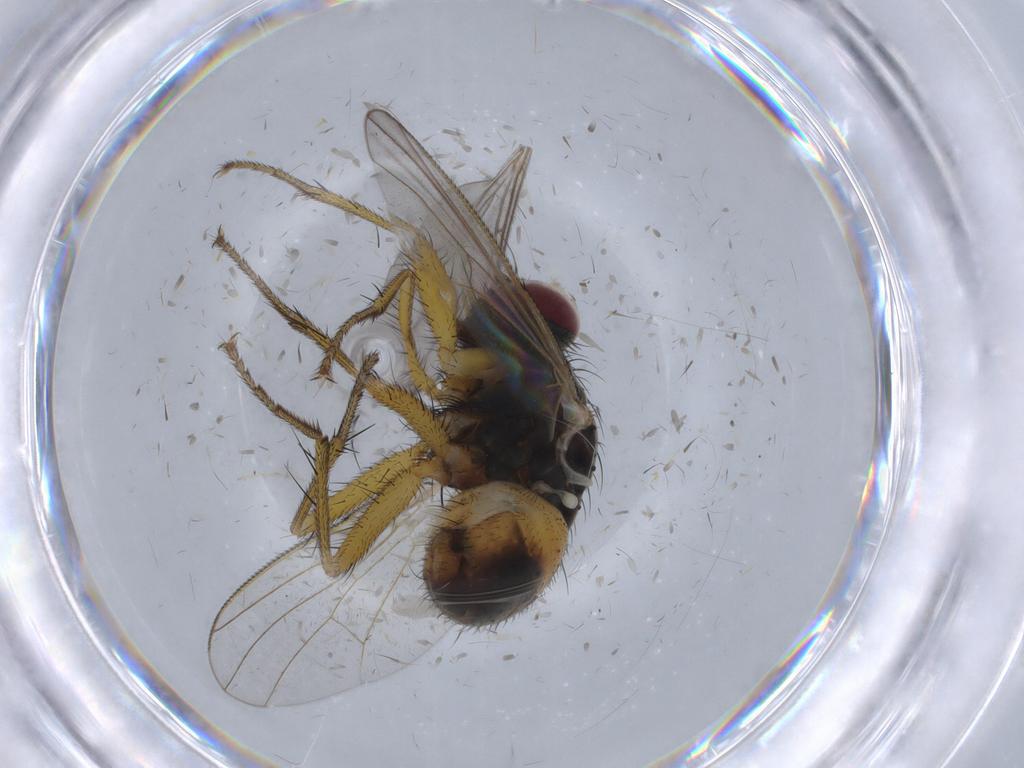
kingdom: Animalia
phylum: Arthropoda
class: Insecta
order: Diptera
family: Muscidae
